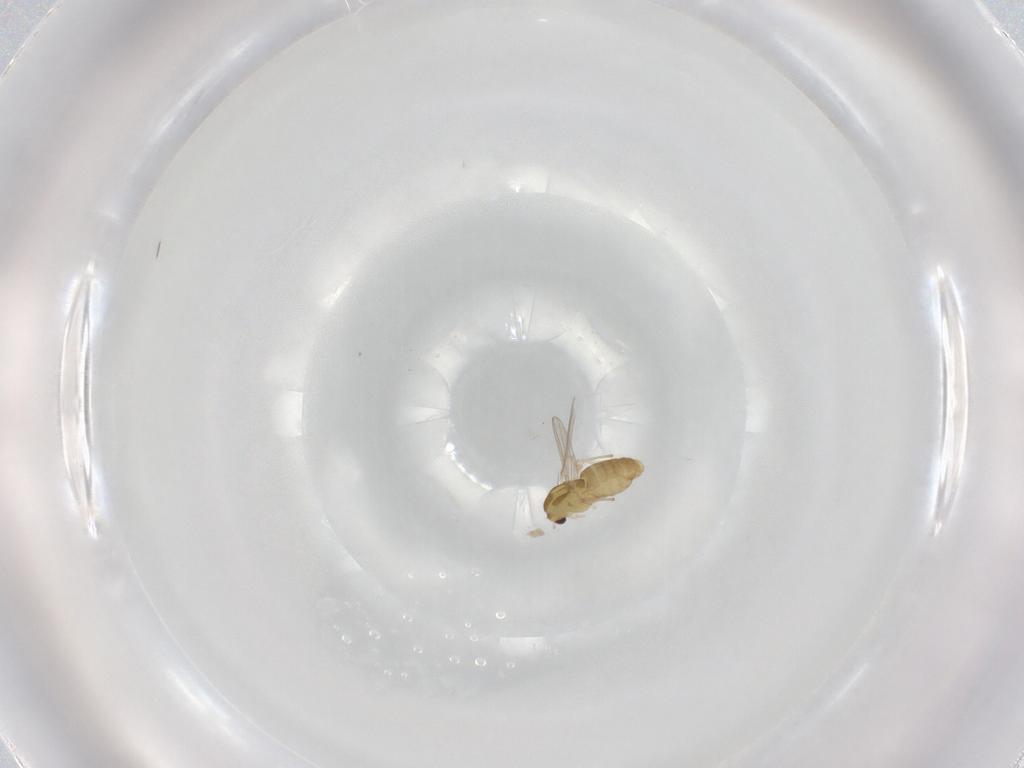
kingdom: Animalia
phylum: Arthropoda
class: Insecta
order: Diptera
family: Chironomidae
